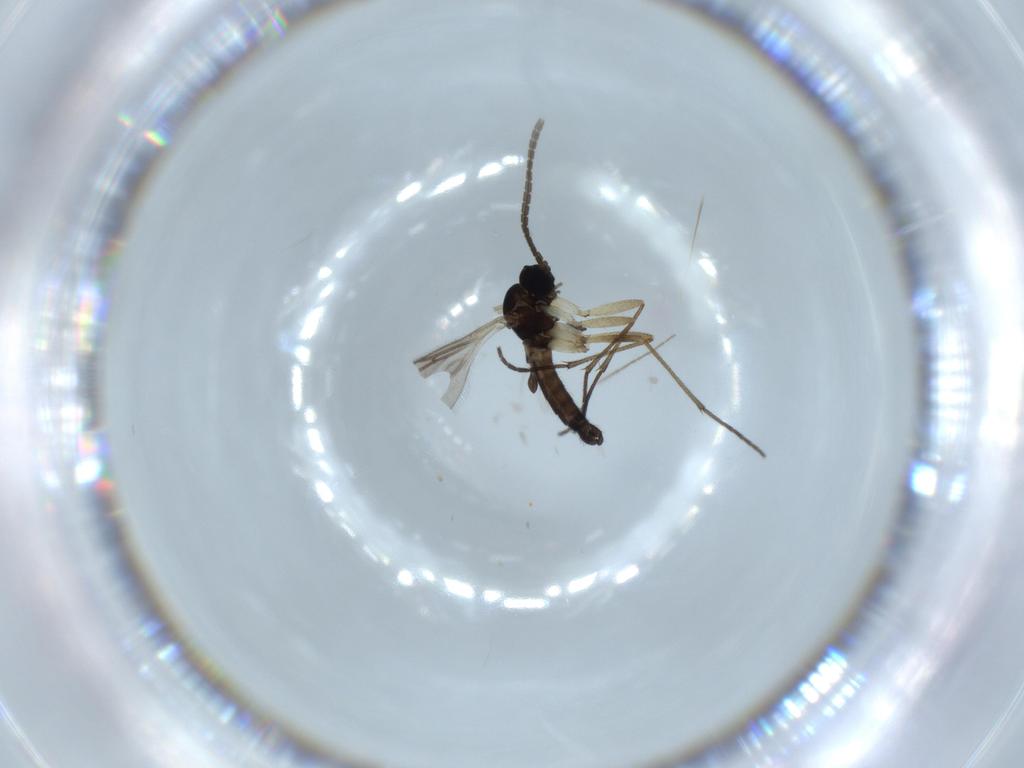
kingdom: Animalia
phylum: Arthropoda
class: Insecta
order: Diptera
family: Sciaridae
